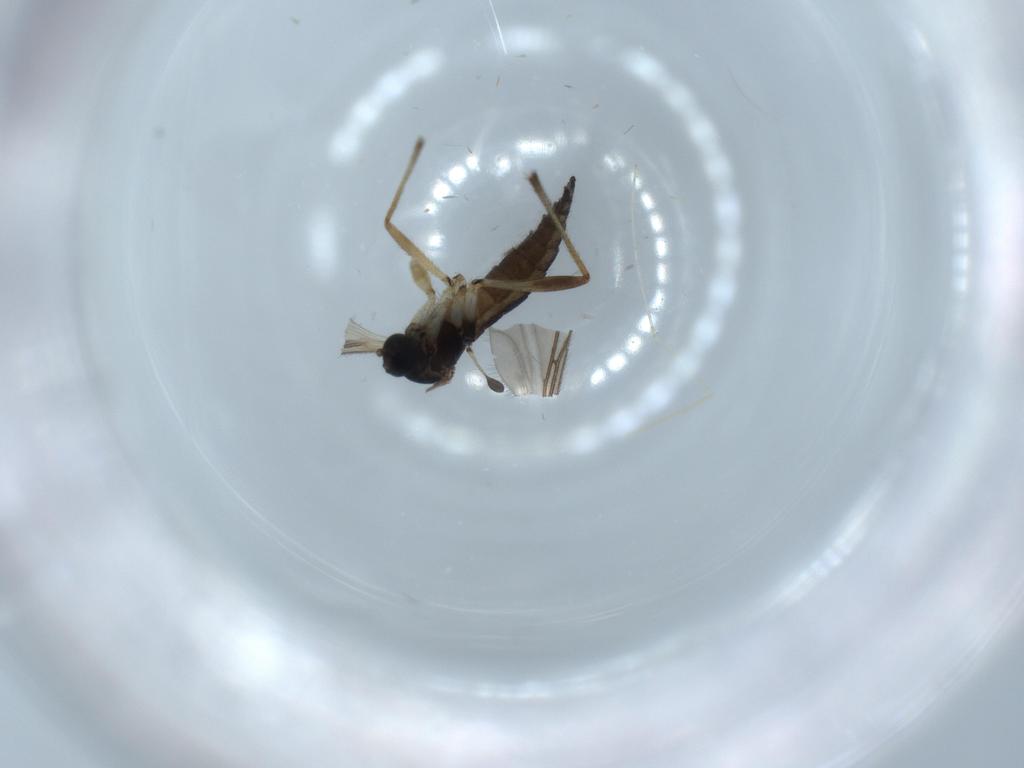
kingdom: Animalia
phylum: Arthropoda
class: Insecta
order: Diptera
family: Sciaridae
